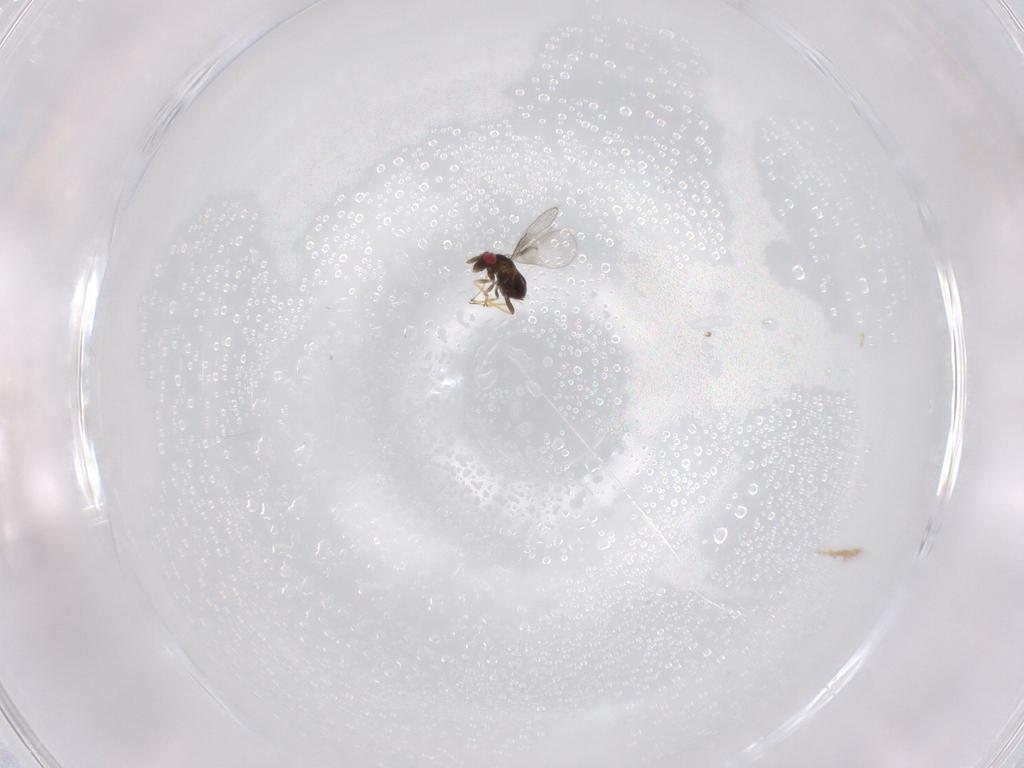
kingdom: Animalia
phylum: Arthropoda
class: Insecta
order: Hymenoptera
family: Trichogrammatidae
